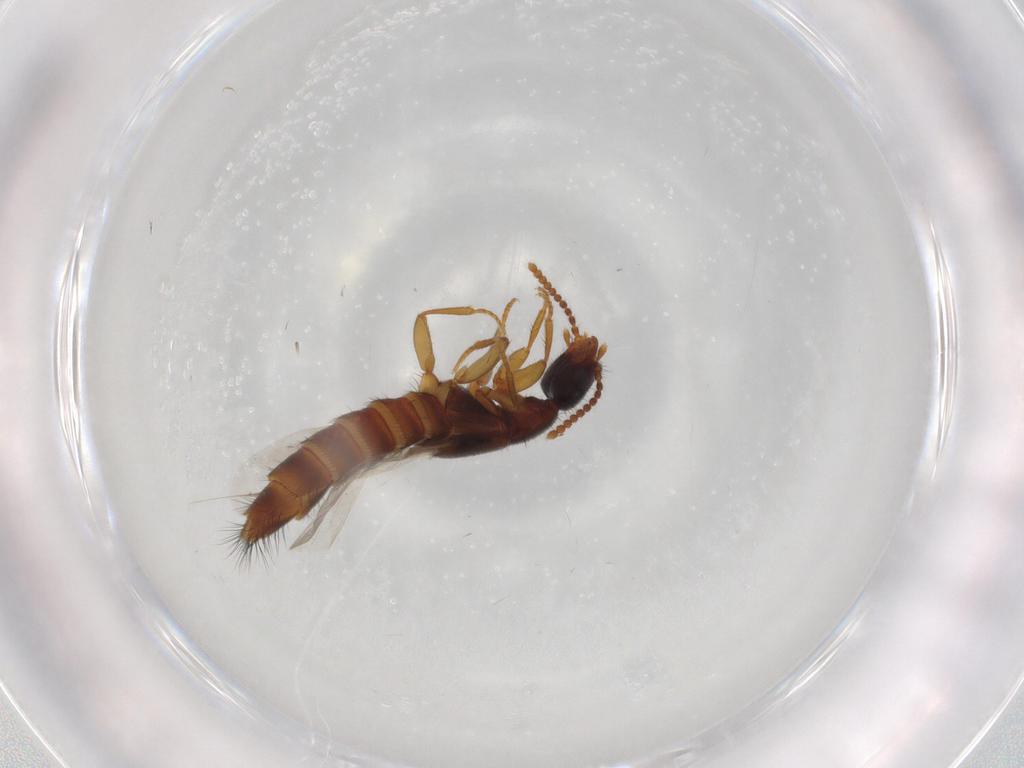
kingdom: Animalia
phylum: Arthropoda
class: Insecta
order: Coleoptera
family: Staphylinidae
